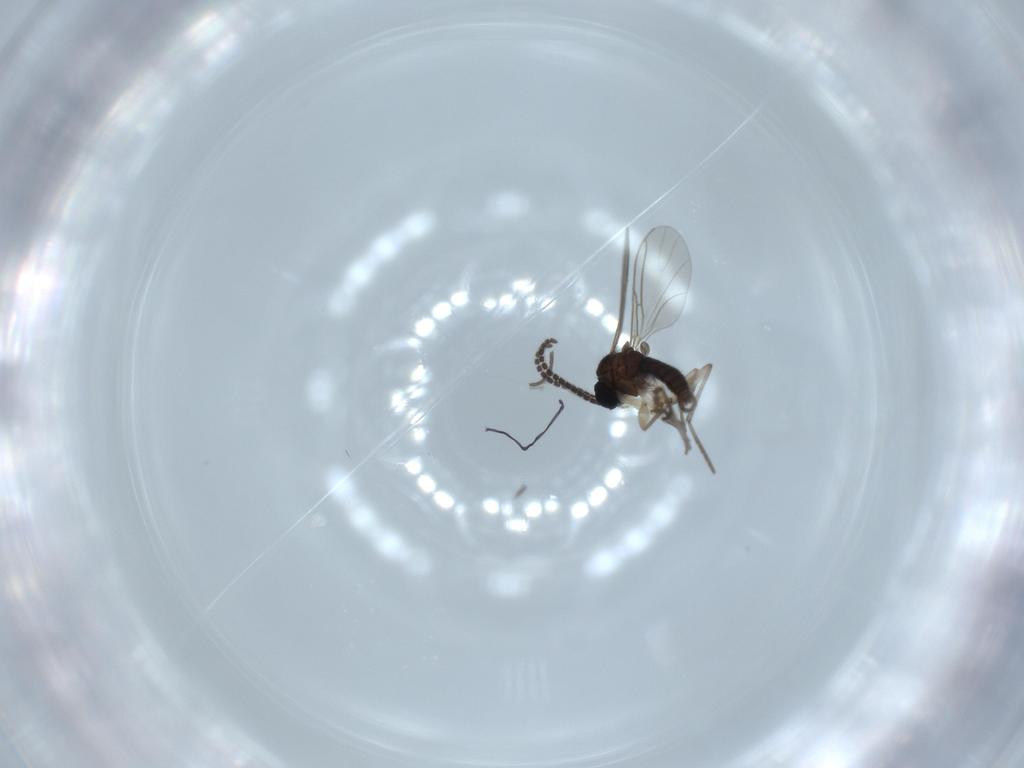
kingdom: Animalia
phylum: Arthropoda
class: Insecta
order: Diptera
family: Sciaridae
